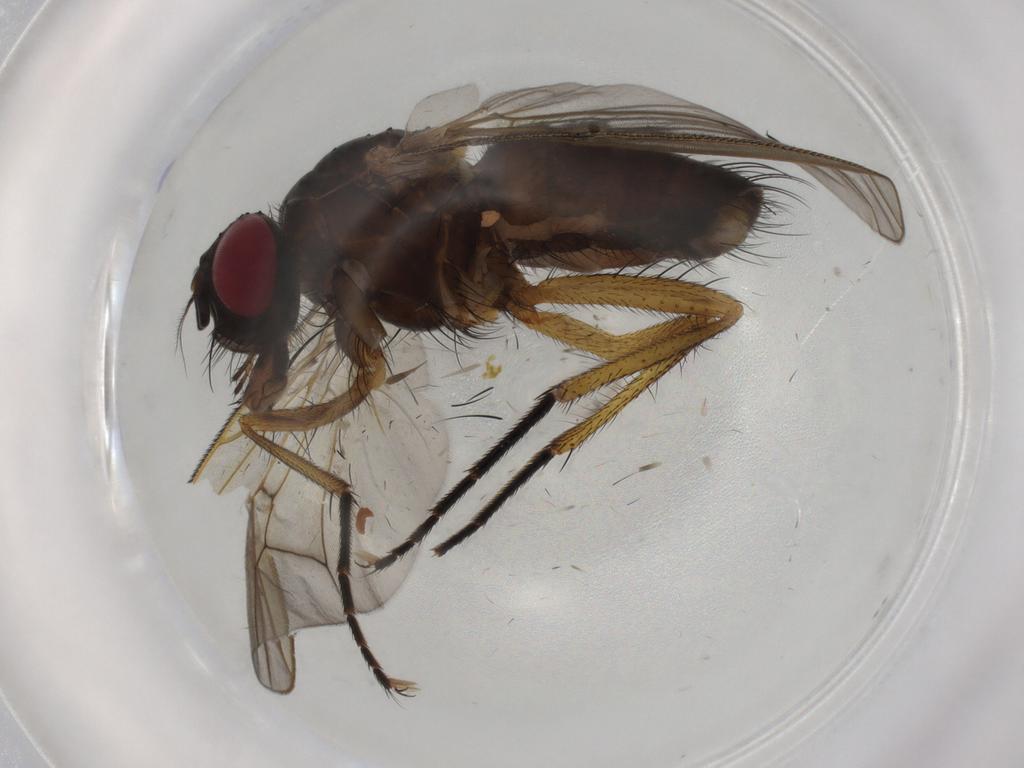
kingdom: Animalia
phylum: Arthropoda
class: Insecta
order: Diptera
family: Muscidae
